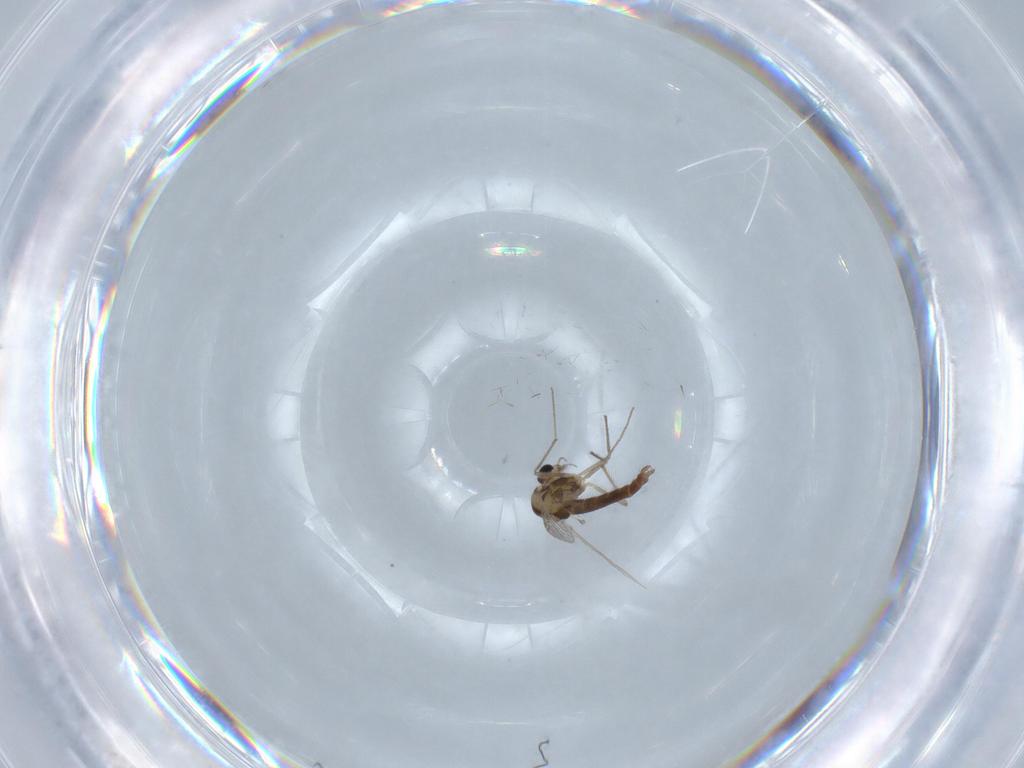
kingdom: Animalia
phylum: Arthropoda
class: Insecta
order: Diptera
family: Chironomidae
